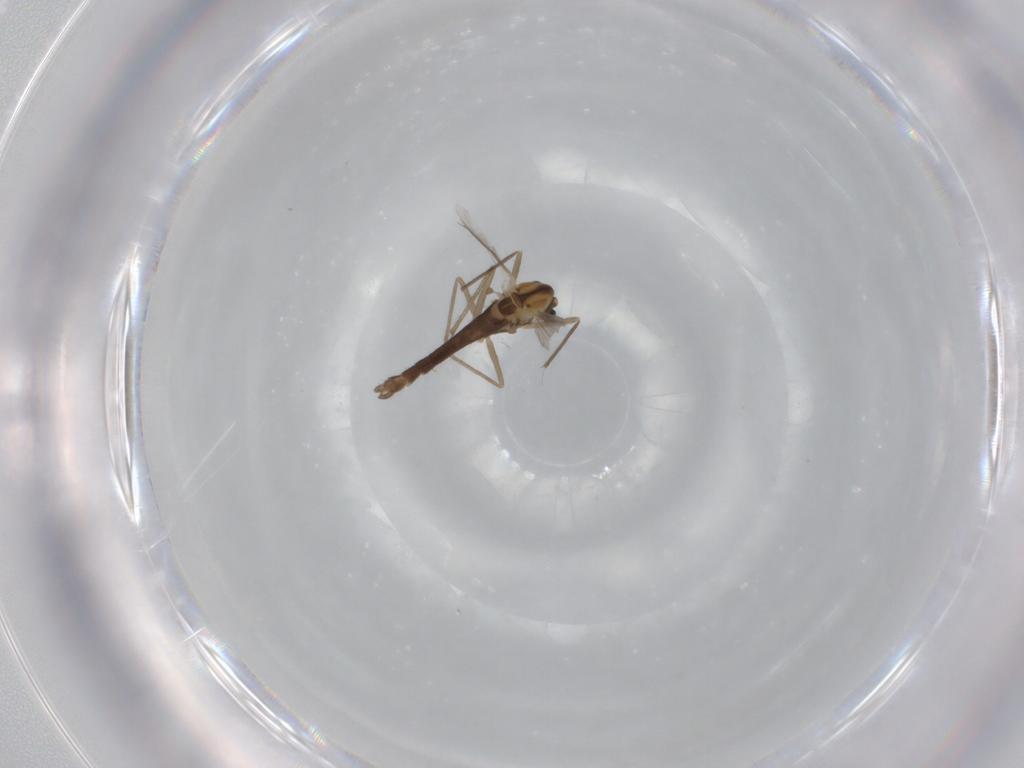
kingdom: Animalia
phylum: Arthropoda
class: Insecta
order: Diptera
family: Chironomidae
